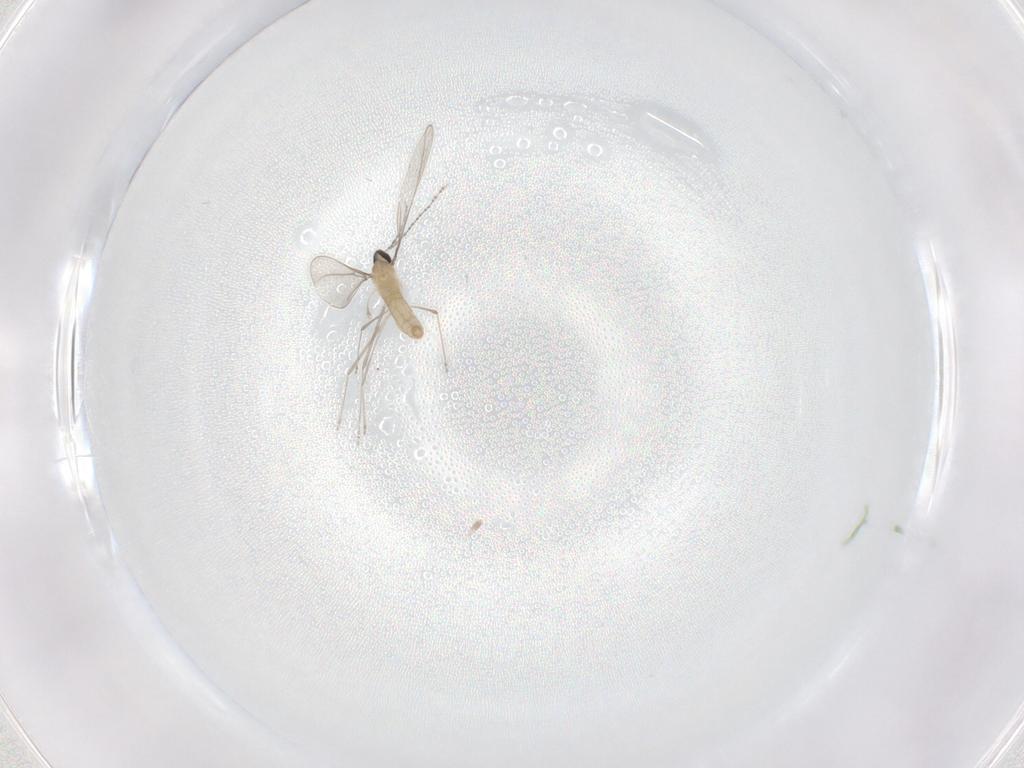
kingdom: Animalia
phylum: Arthropoda
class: Insecta
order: Diptera
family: Cecidomyiidae
